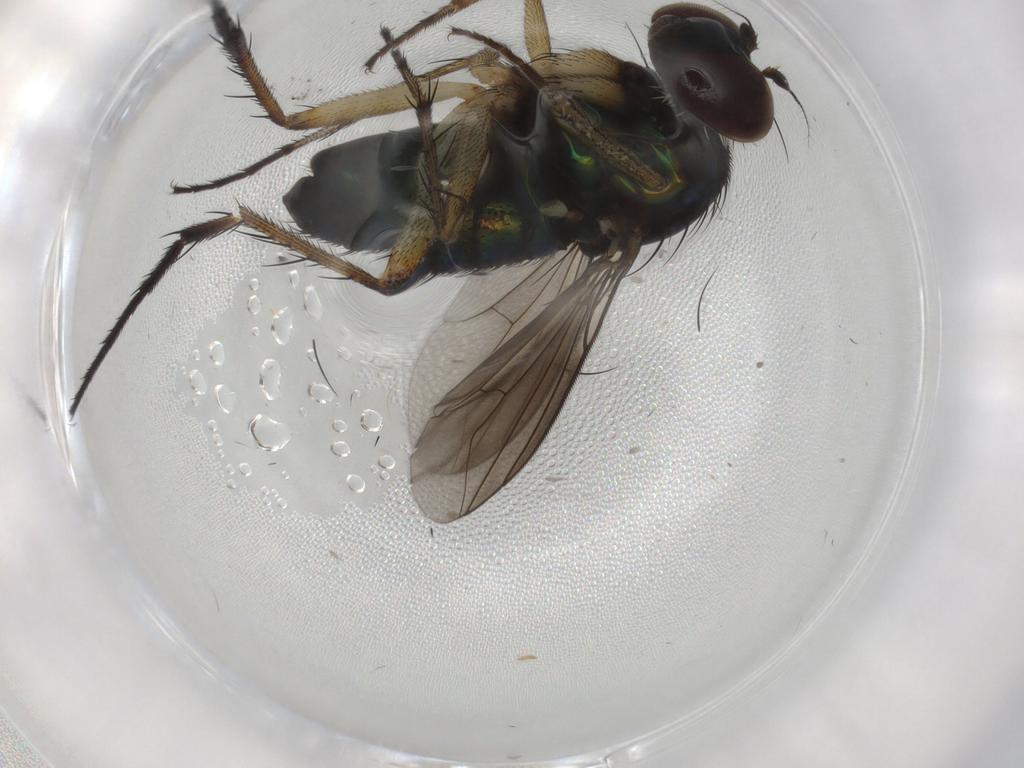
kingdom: Animalia
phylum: Arthropoda
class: Insecta
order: Diptera
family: Dolichopodidae
